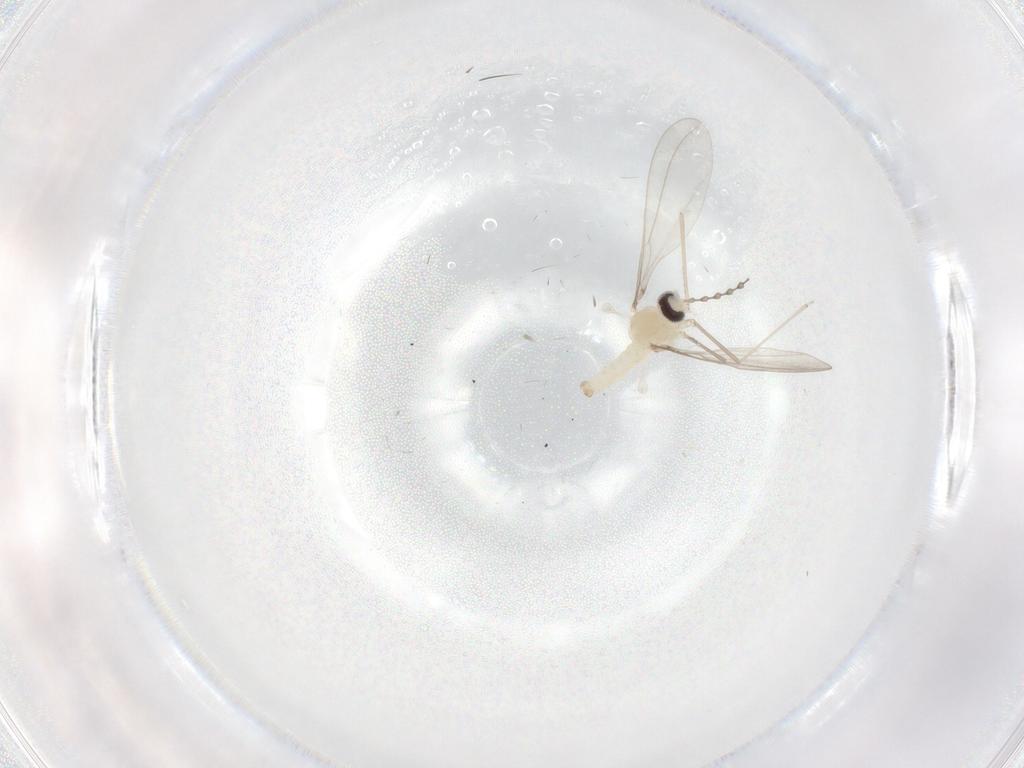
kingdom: Animalia
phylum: Arthropoda
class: Insecta
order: Diptera
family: Cecidomyiidae
